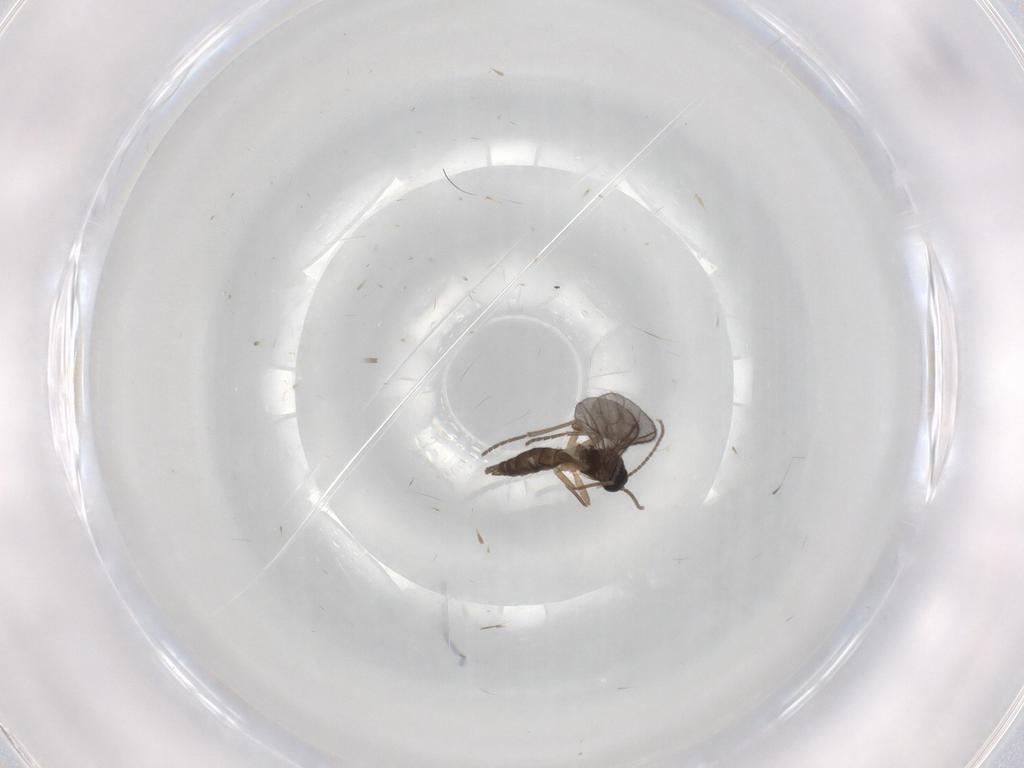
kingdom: Animalia
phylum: Arthropoda
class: Insecta
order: Diptera
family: Sciaridae
